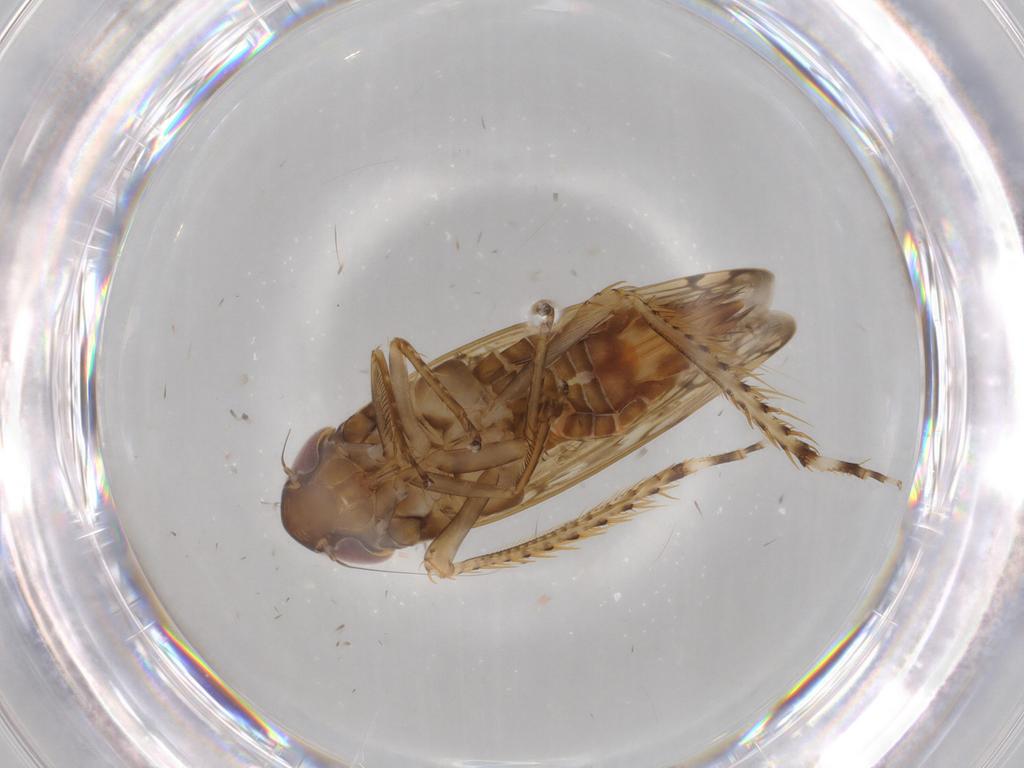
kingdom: Animalia
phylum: Arthropoda
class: Insecta
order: Hemiptera
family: Cicadellidae
